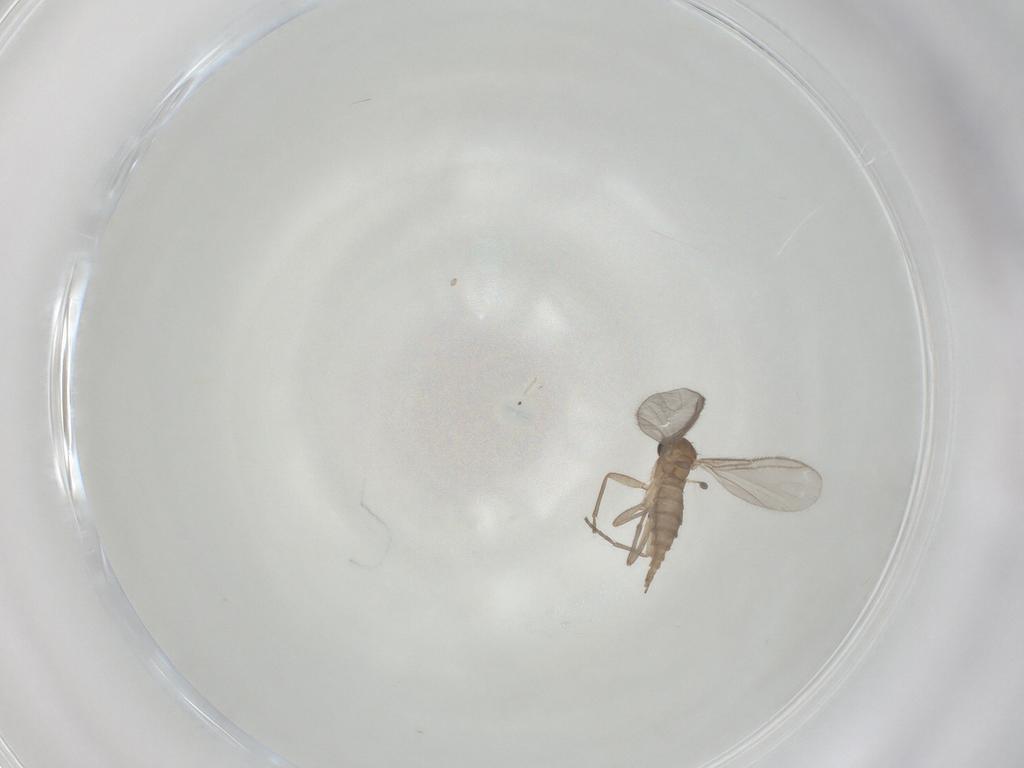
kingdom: Animalia
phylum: Arthropoda
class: Insecta
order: Diptera
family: Sciaridae
